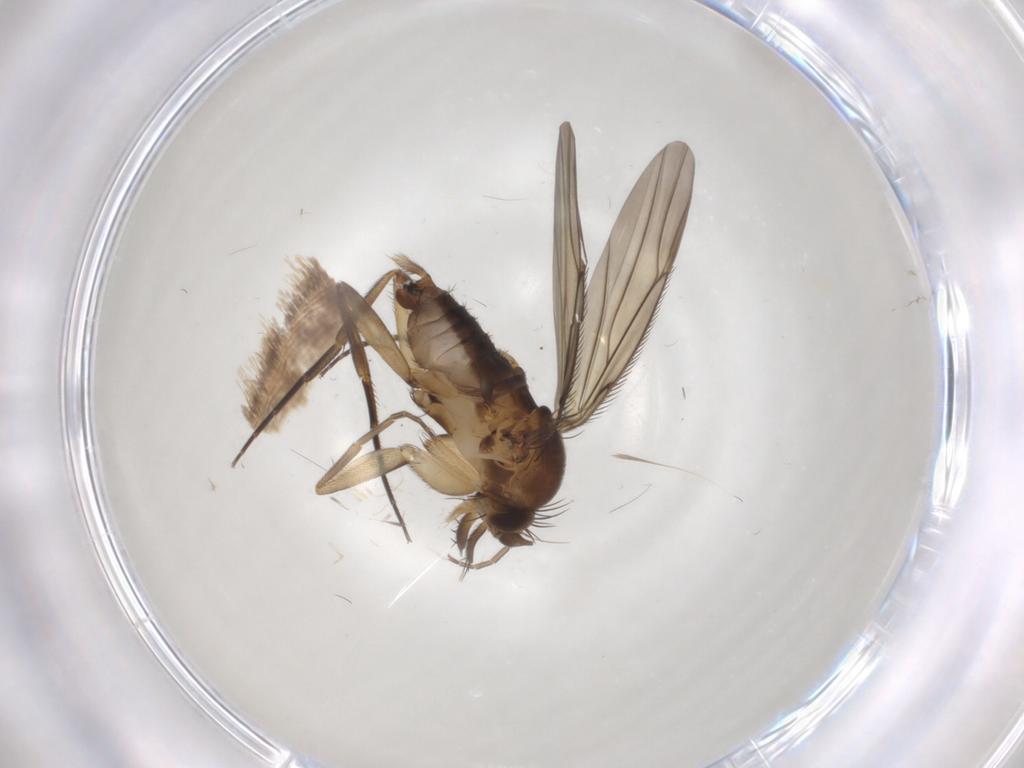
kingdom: Animalia
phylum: Arthropoda
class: Insecta
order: Diptera
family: Phoridae
